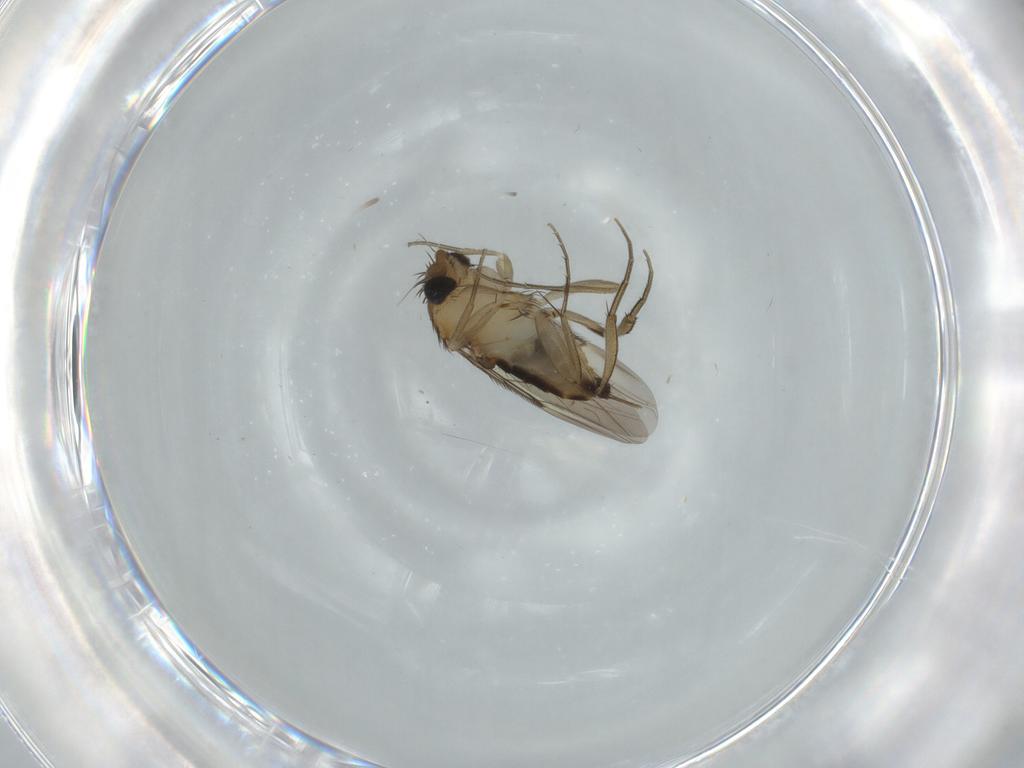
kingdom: Animalia
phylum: Arthropoda
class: Insecta
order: Diptera
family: Phoridae
